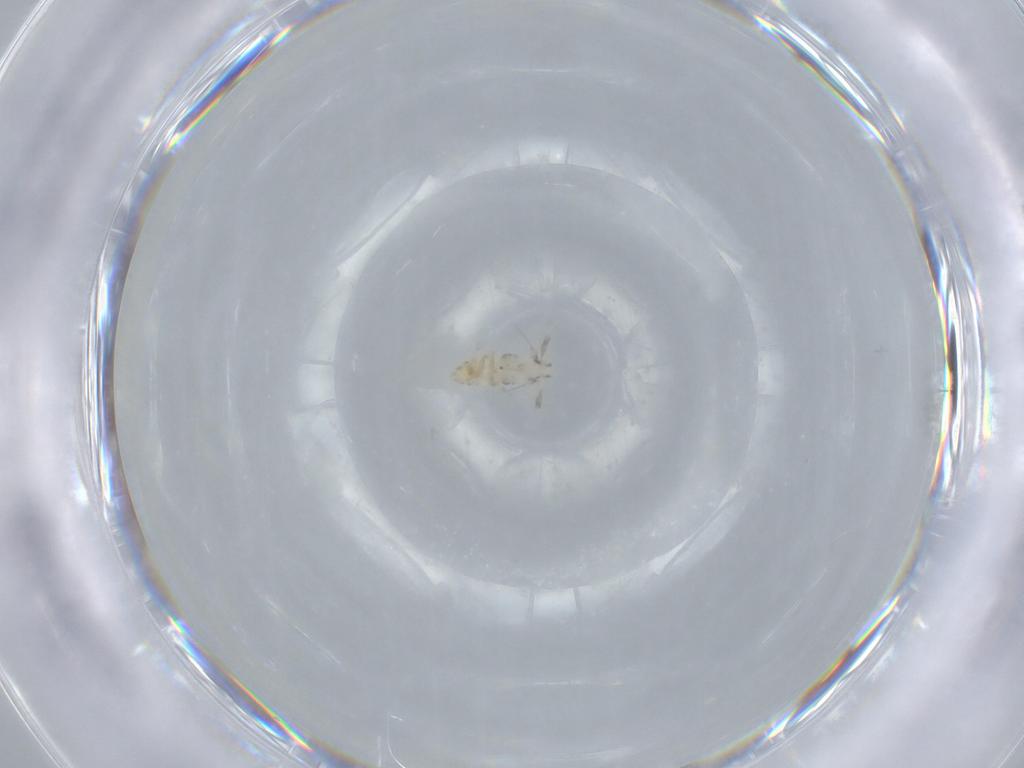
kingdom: Animalia
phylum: Arthropoda
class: Insecta
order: Hemiptera
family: Delphacidae
